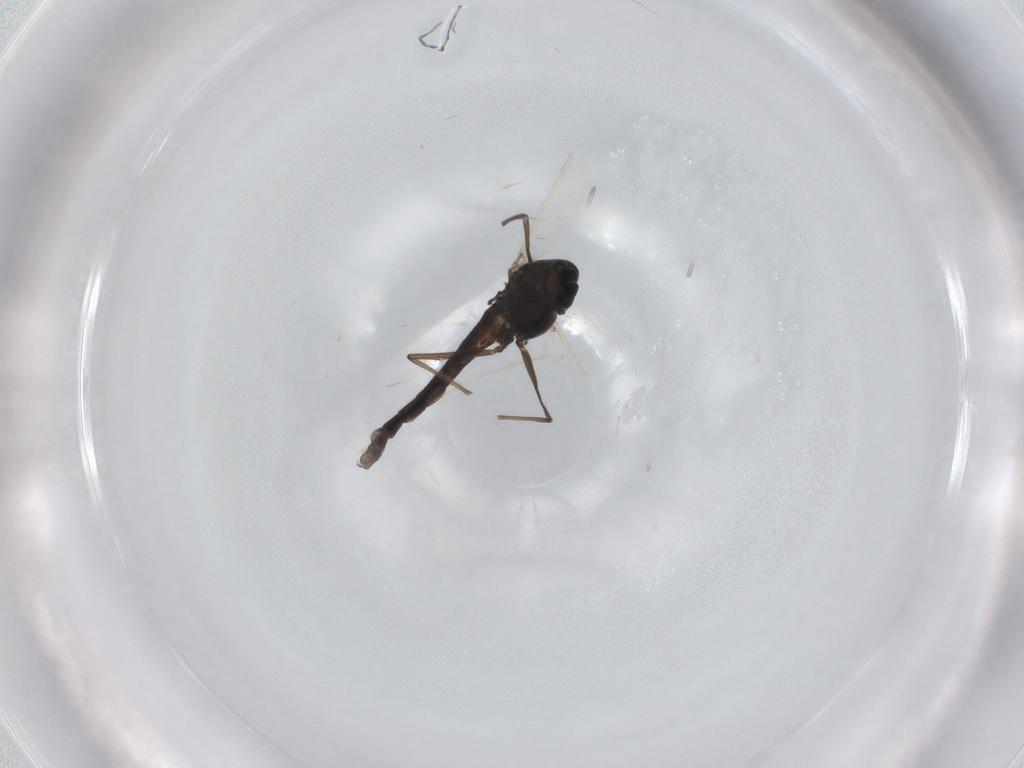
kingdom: Animalia
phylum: Arthropoda
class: Insecta
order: Diptera
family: Chironomidae
